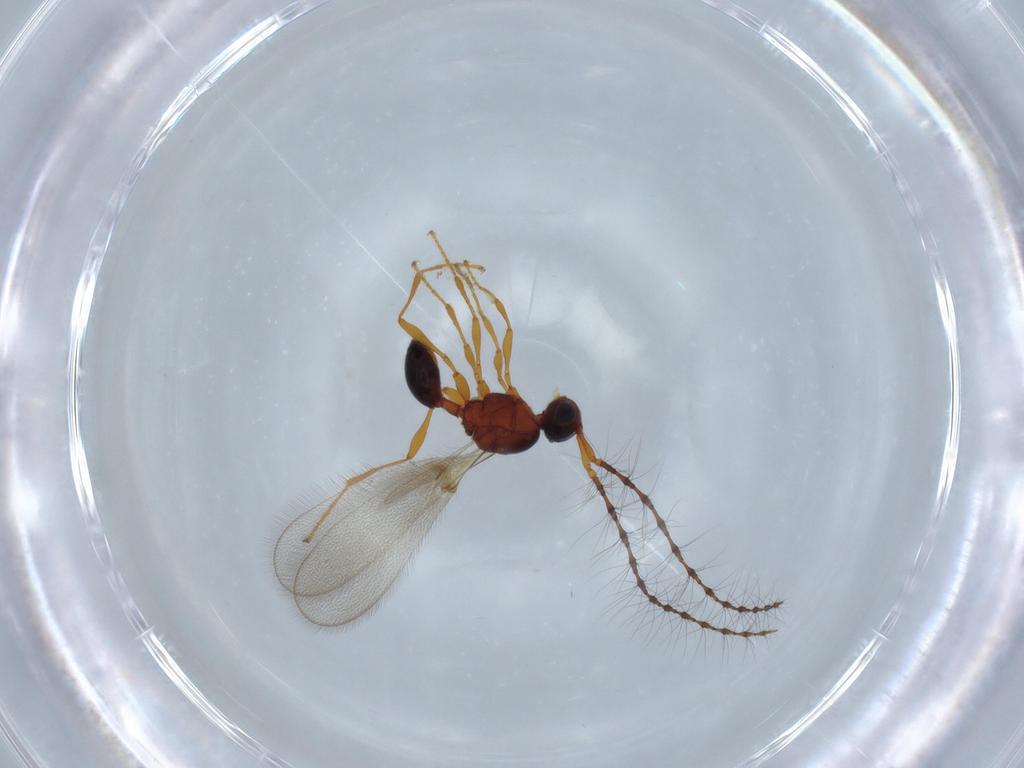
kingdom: Animalia
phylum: Arthropoda
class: Insecta
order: Hymenoptera
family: Diapriidae
